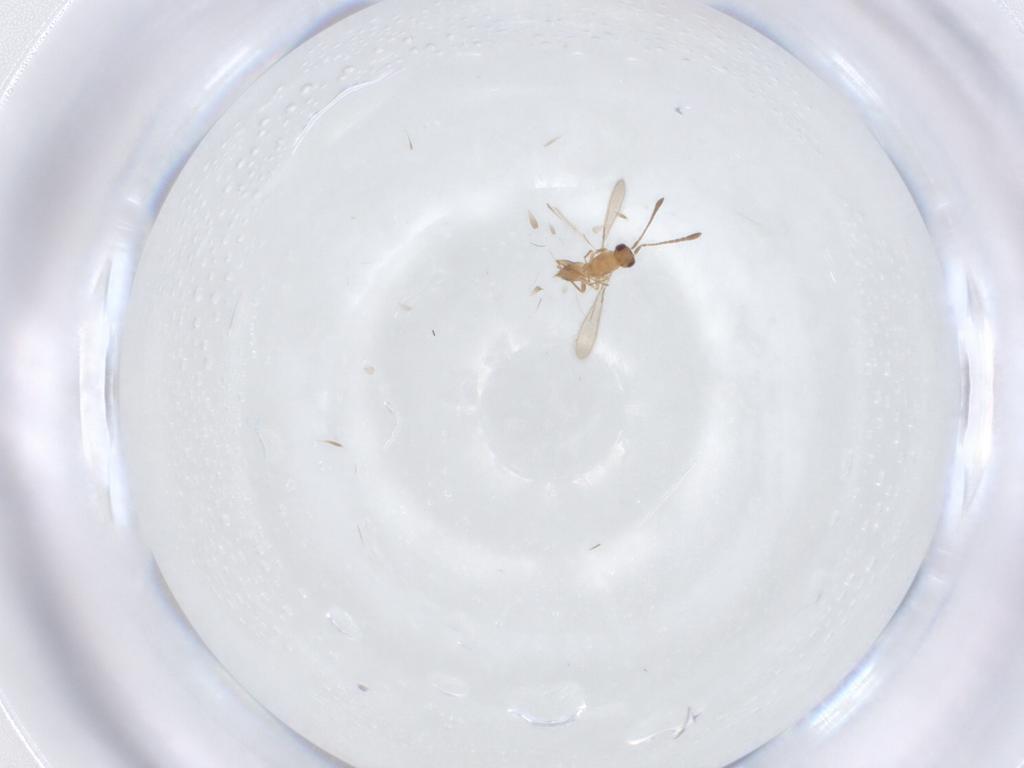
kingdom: Animalia
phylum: Arthropoda
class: Insecta
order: Hymenoptera
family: Mymaridae
